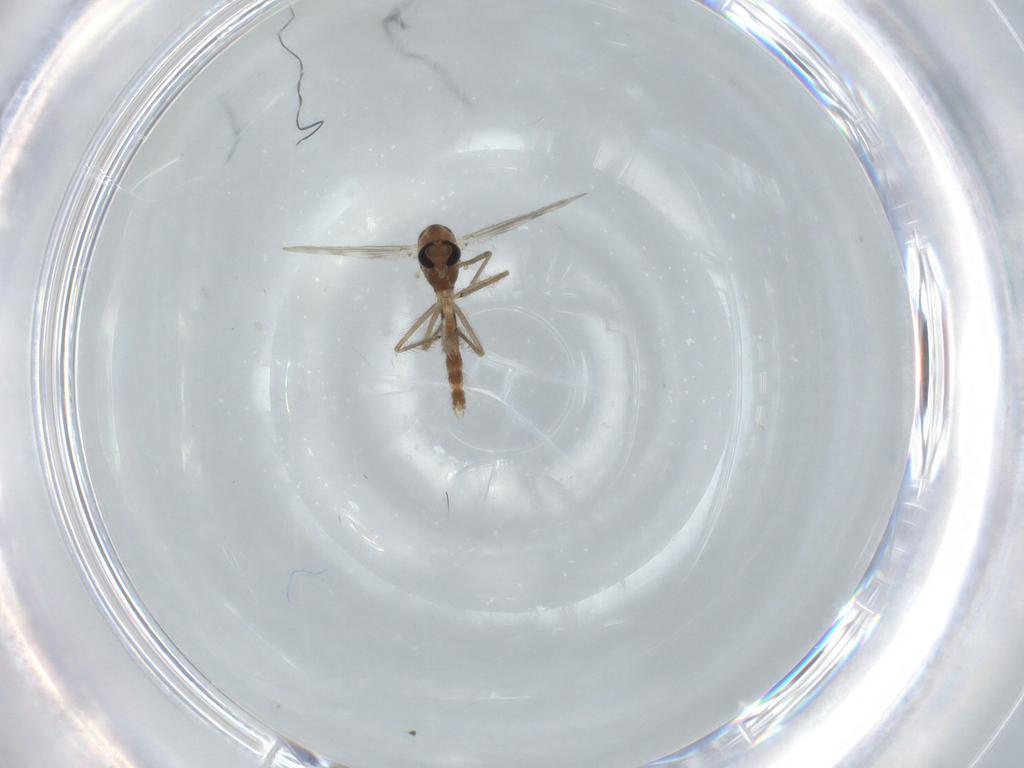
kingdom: Animalia
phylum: Arthropoda
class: Insecta
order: Diptera
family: Chironomidae
